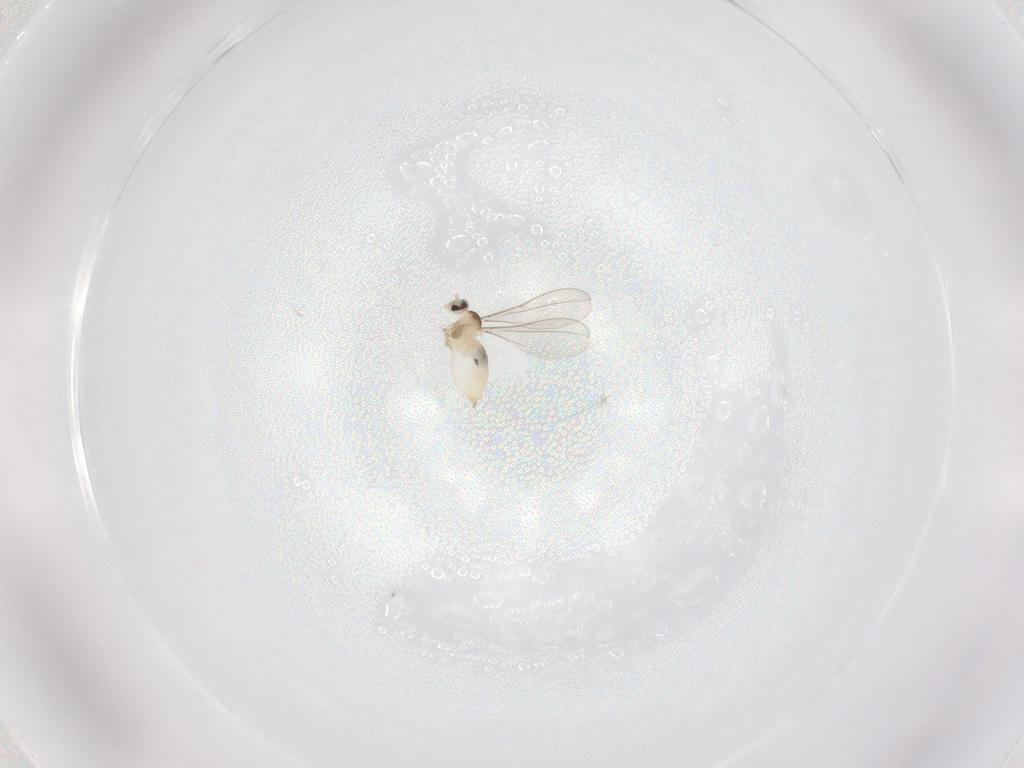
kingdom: Animalia
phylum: Arthropoda
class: Insecta
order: Diptera
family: Cecidomyiidae
